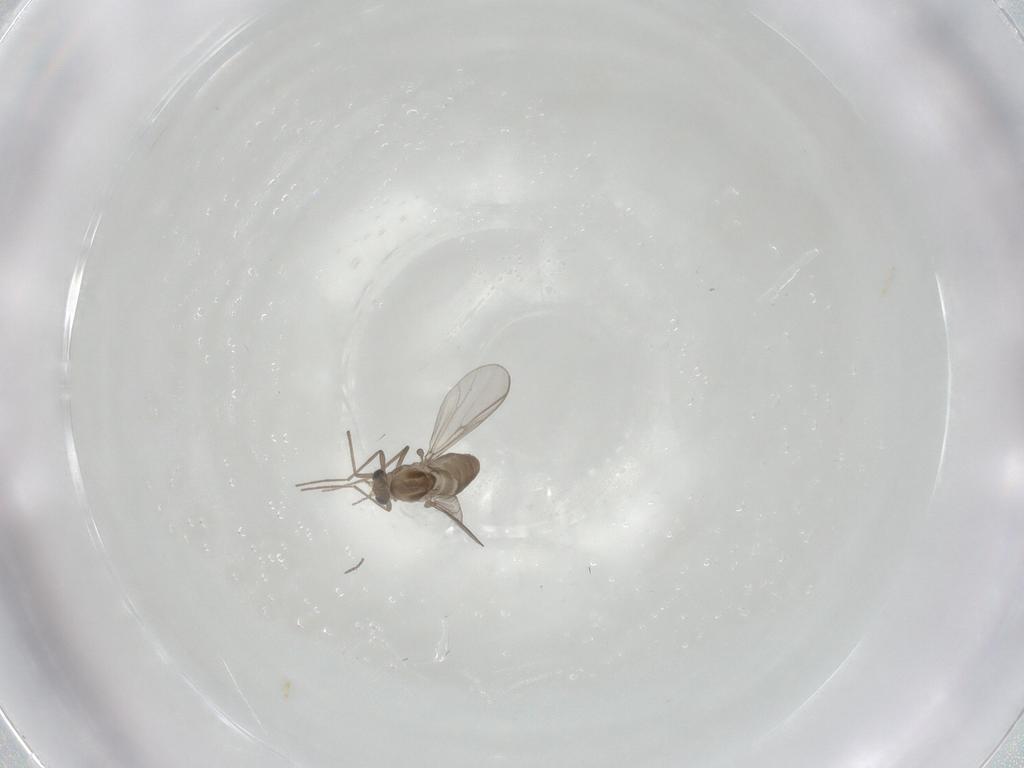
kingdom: Animalia
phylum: Arthropoda
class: Insecta
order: Diptera
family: Chironomidae
